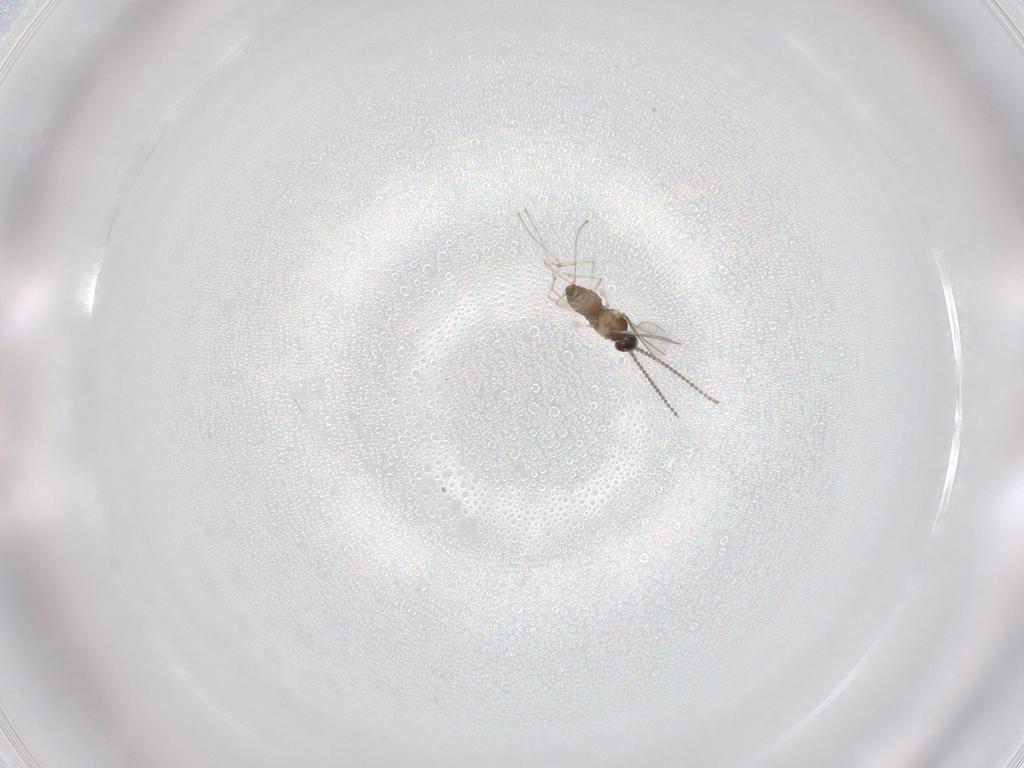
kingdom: Animalia
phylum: Arthropoda
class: Insecta
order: Diptera
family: Cecidomyiidae
